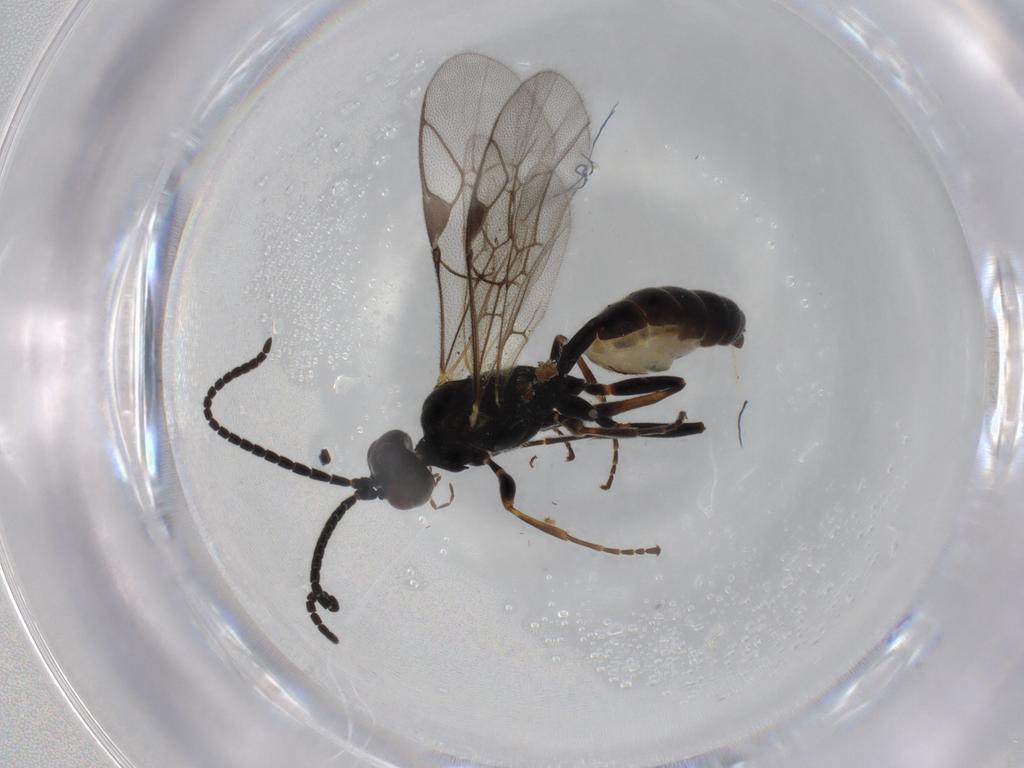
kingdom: Animalia
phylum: Arthropoda
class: Insecta
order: Hymenoptera
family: Ichneumonidae
